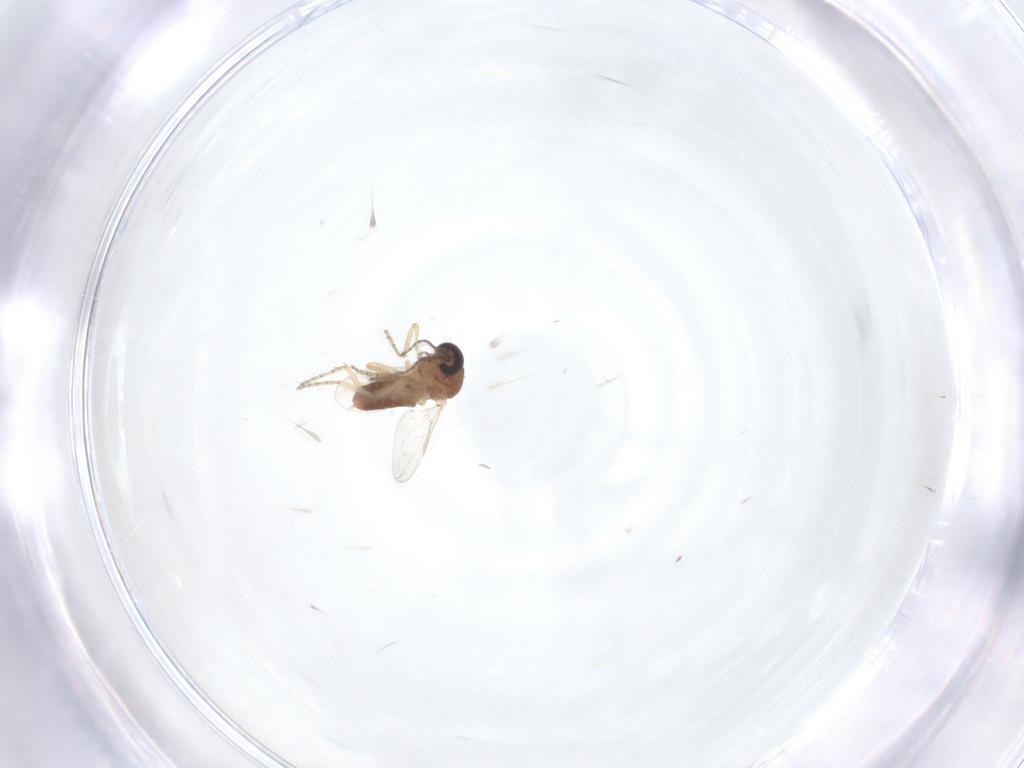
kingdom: Animalia
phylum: Arthropoda
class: Insecta
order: Diptera
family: Ceratopogonidae
